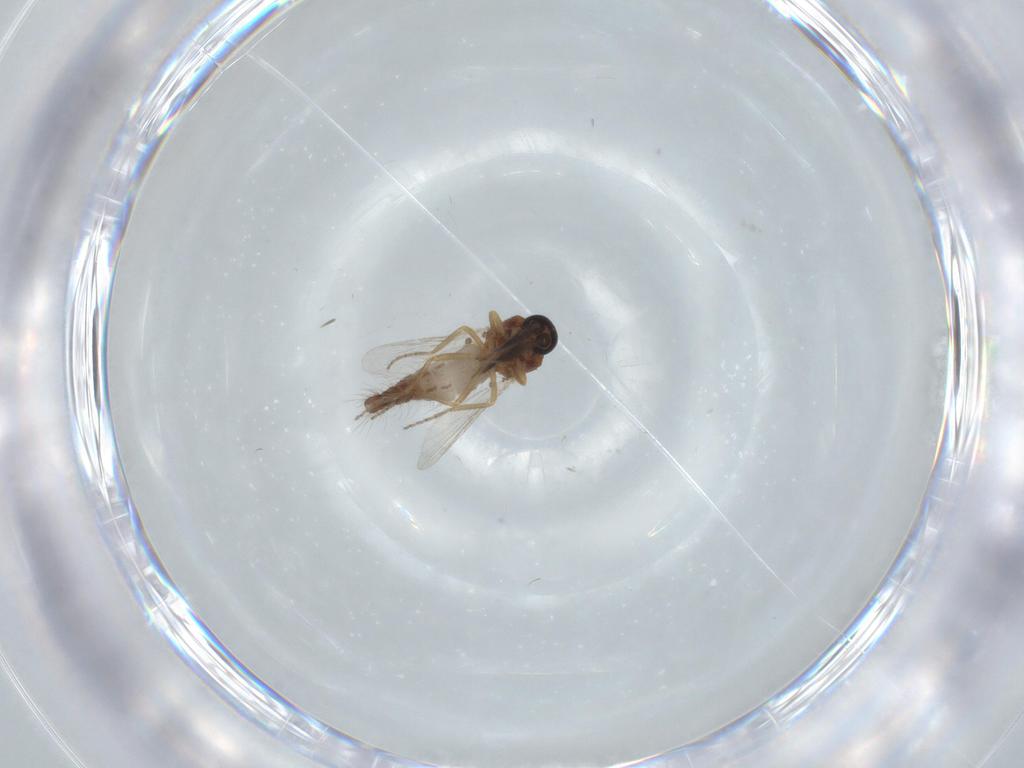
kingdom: Animalia
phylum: Arthropoda
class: Insecta
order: Diptera
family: Ceratopogonidae
